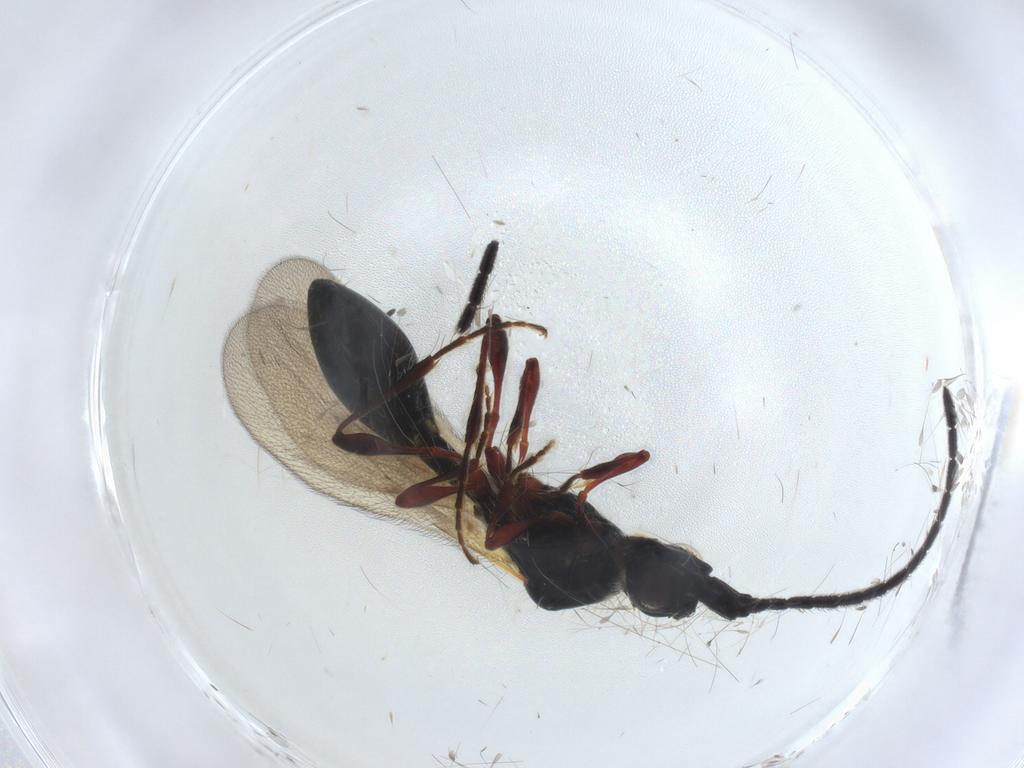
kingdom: Animalia
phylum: Arthropoda
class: Insecta
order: Hymenoptera
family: Diapriidae
